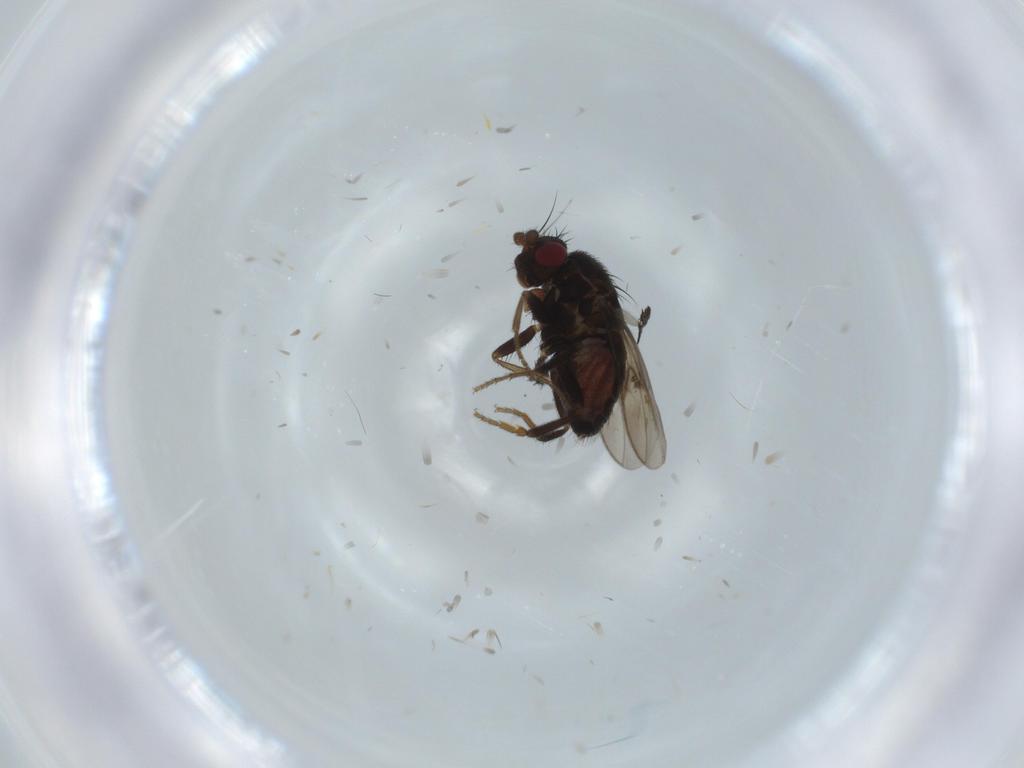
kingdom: Animalia
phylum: Arthropoda
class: Insecta
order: Diptera
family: Sphaeroceridae
